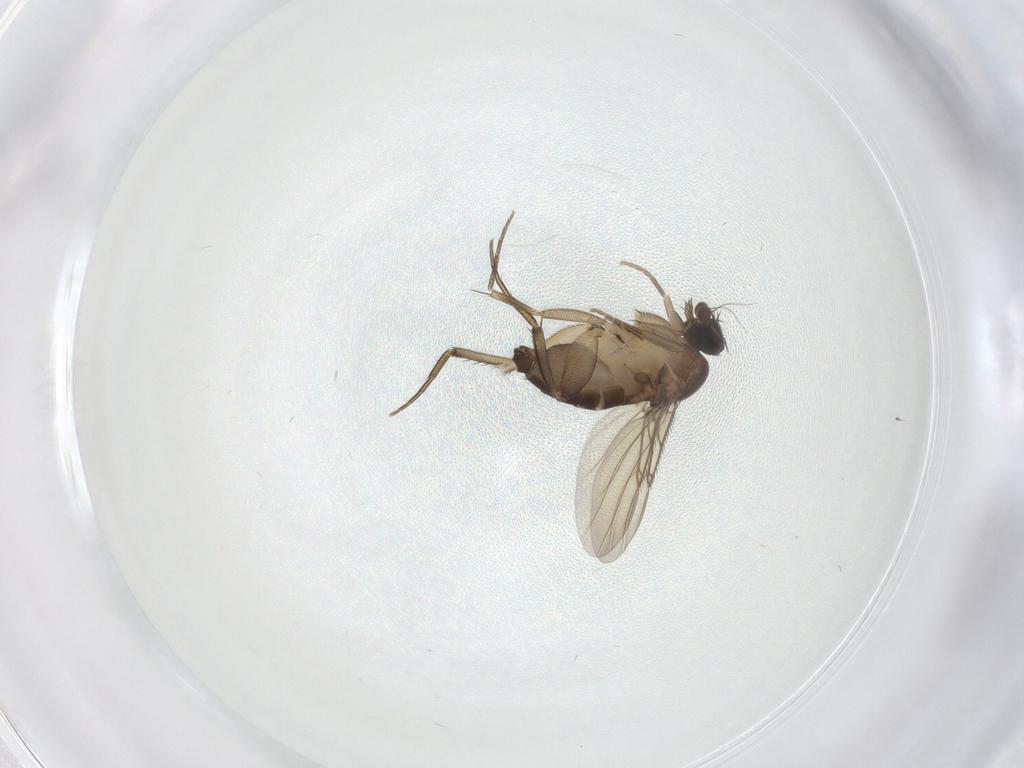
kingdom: Animalia
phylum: Arthropoda
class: Insecta
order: Diptera
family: Phoridae
